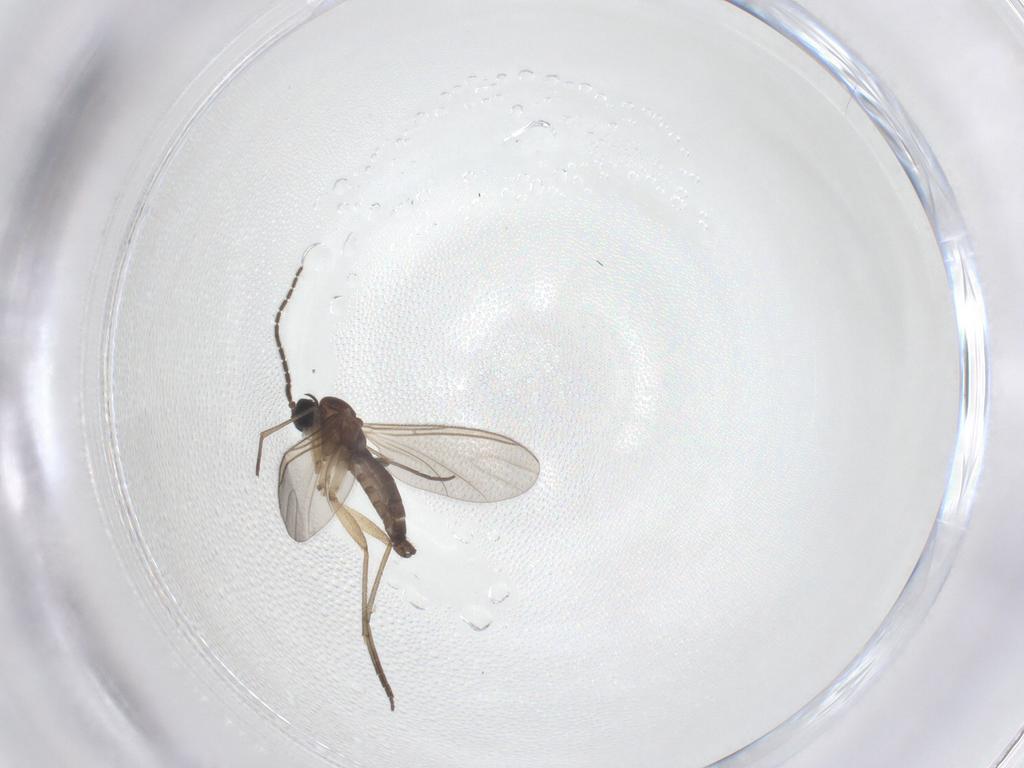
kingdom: Animalia
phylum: Arthropoda
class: Insecta
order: Diptera
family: Sciaridae
